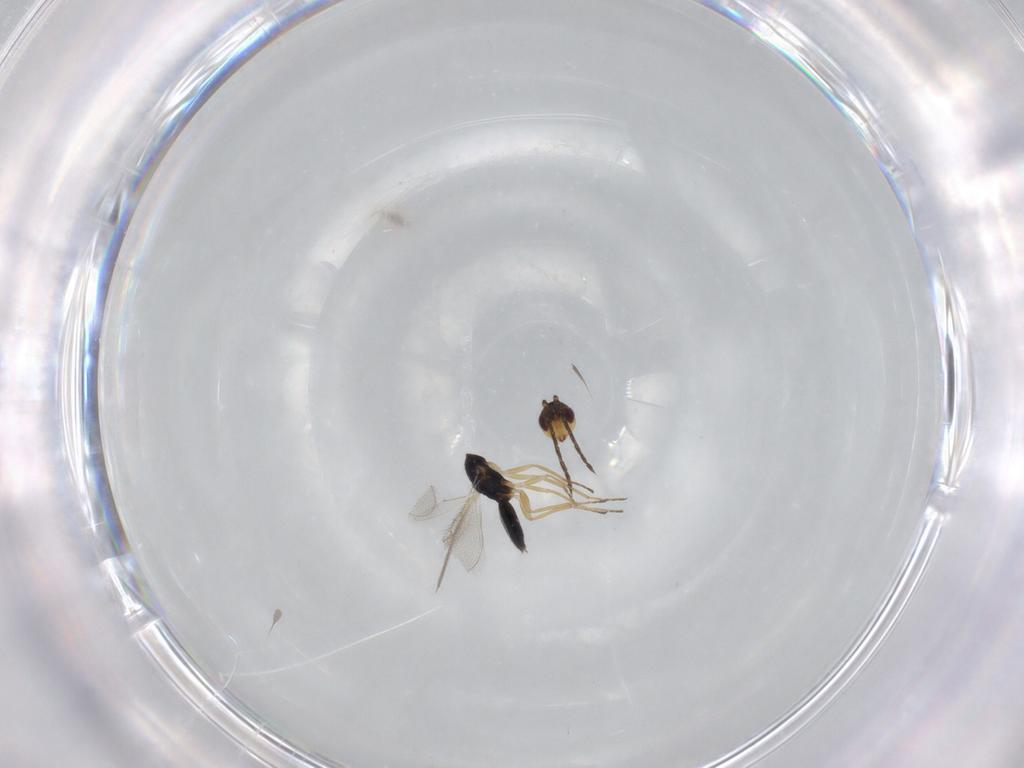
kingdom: Animalia
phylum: Arthropoda
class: Insecta
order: Hymenoptera
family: Eulophidae
